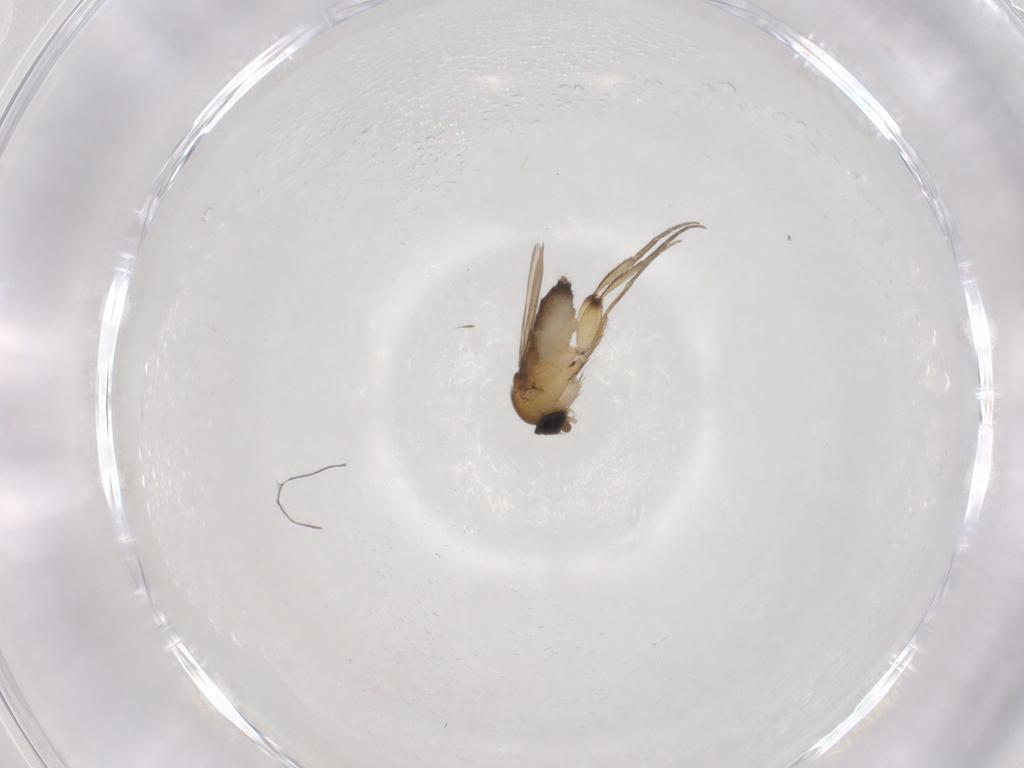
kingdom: Animalia
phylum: Arthropoda
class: Insecta
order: Diptera
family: Phoridae
